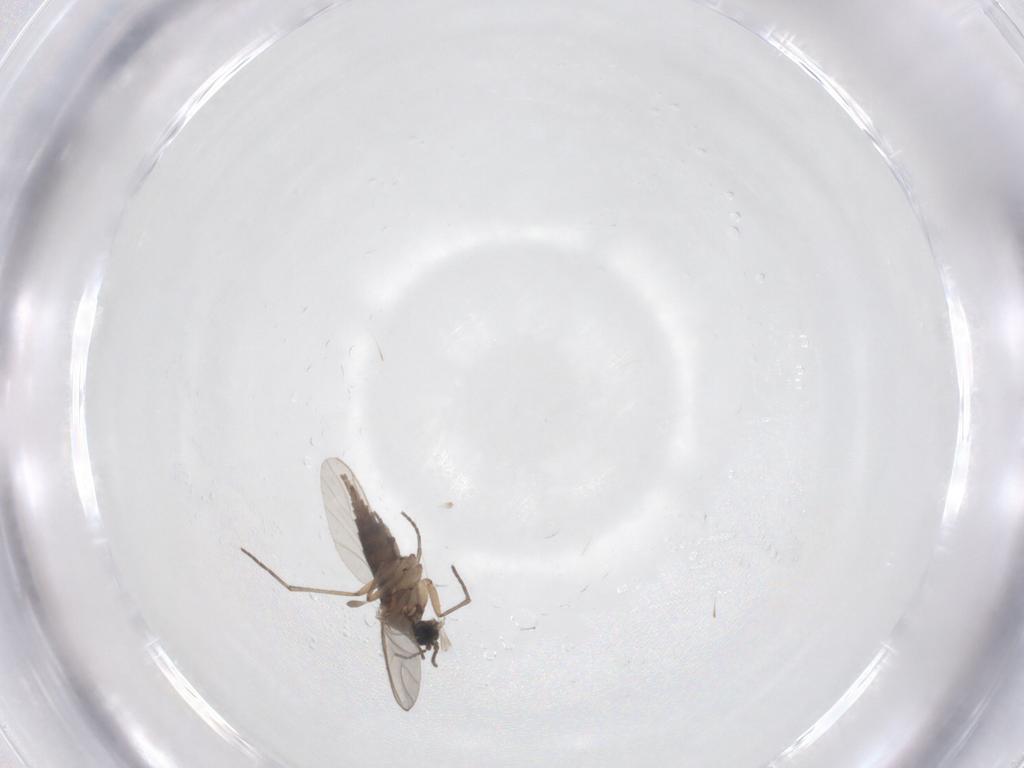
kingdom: Animalia
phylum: Arthropoda
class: Insecta
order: Diptera
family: Sciaridae
